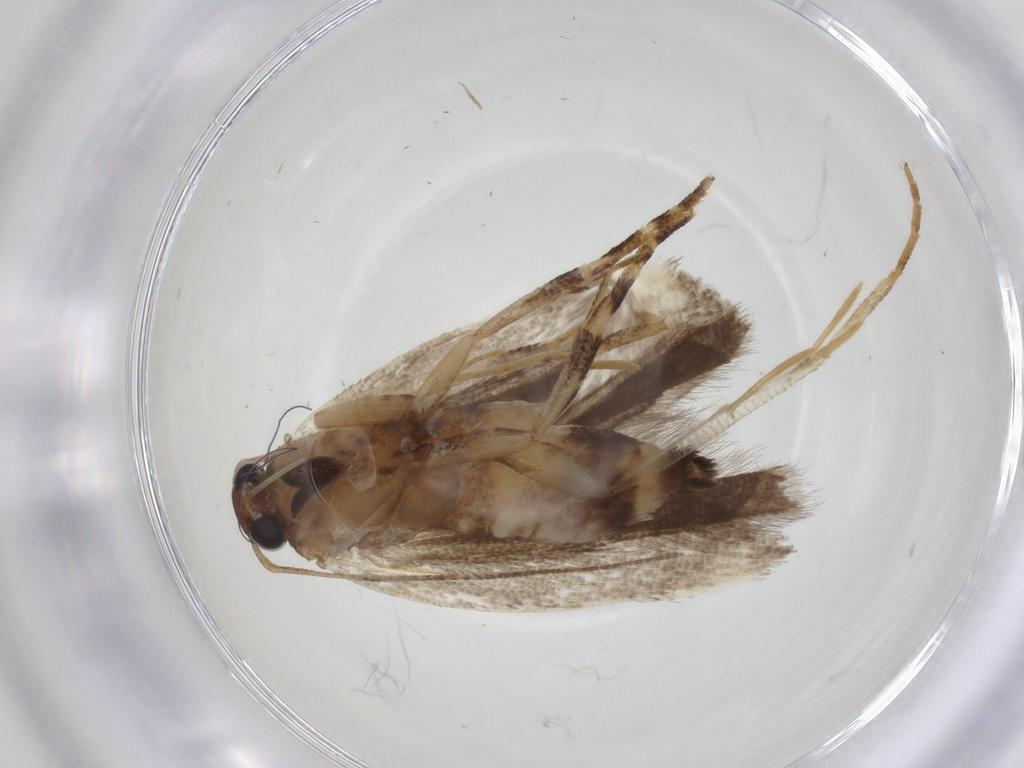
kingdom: Animalia
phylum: Arthropoda
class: Insecta
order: Lepidoptera
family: Gelechiidae
